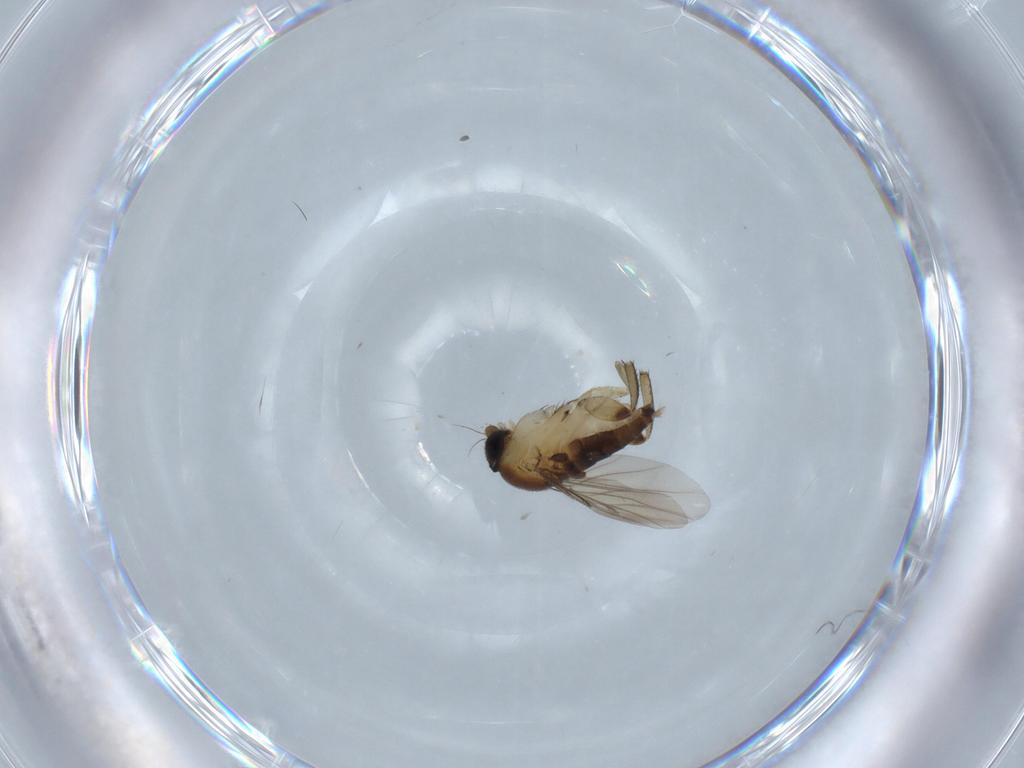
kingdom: Animalia
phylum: Arthropoda
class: Insecta
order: Diptera
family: Phoridae
